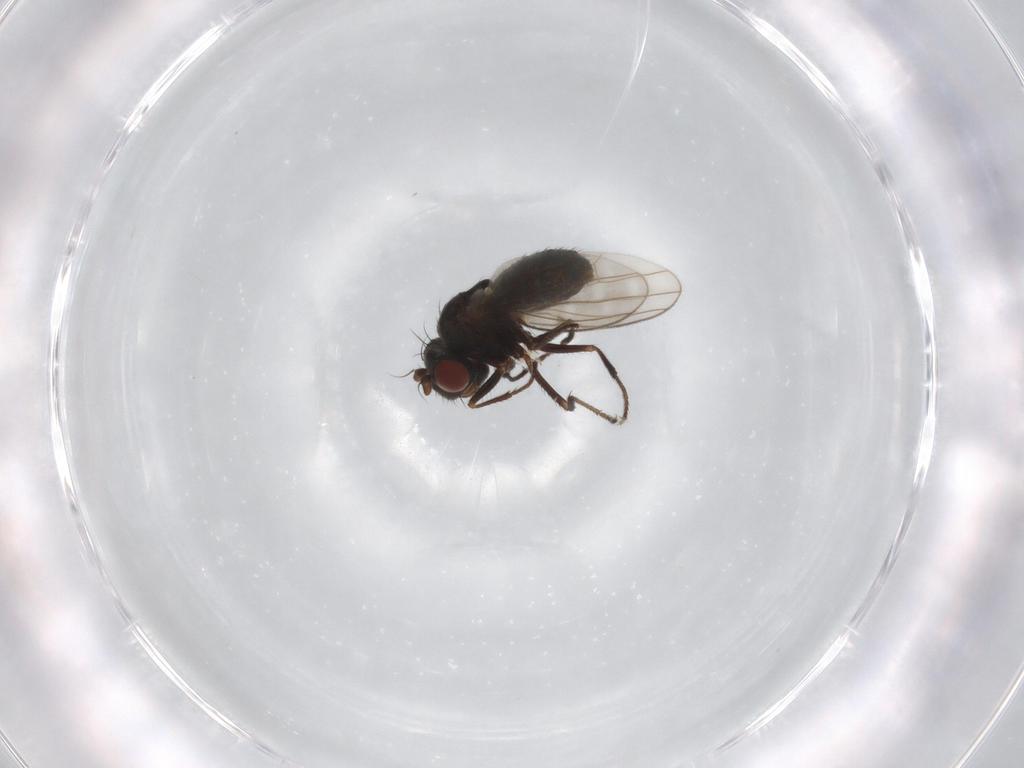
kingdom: Animalia
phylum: Arthropoda
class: Insecta
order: Diptera
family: Ephydridae
